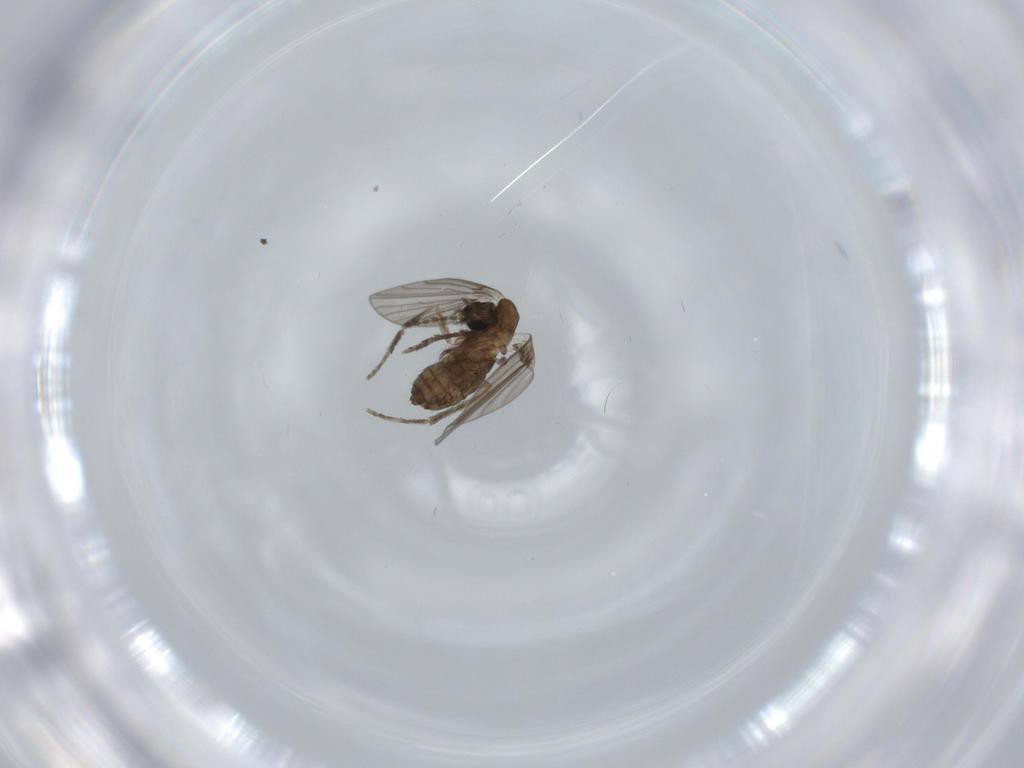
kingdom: Animalia
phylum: Arthropoda
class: Insecta
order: Diptera
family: Milichiidae
